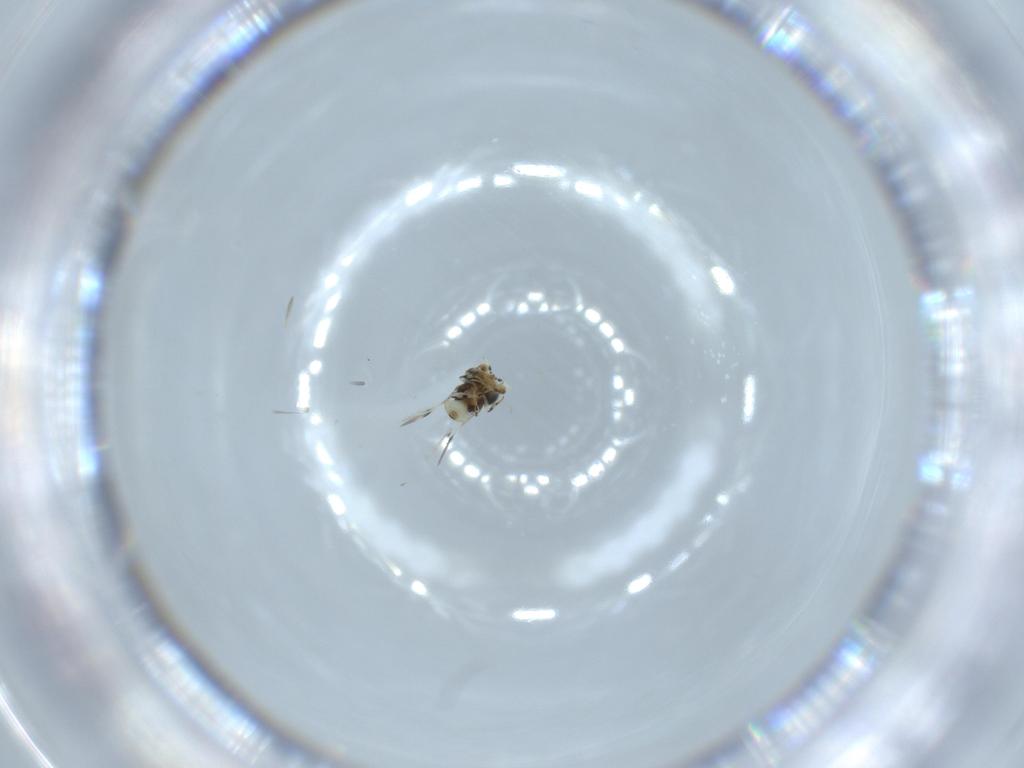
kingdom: Animalia
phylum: Arthropoda
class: Insecta
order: Hymenoptera
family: Scelionidae
